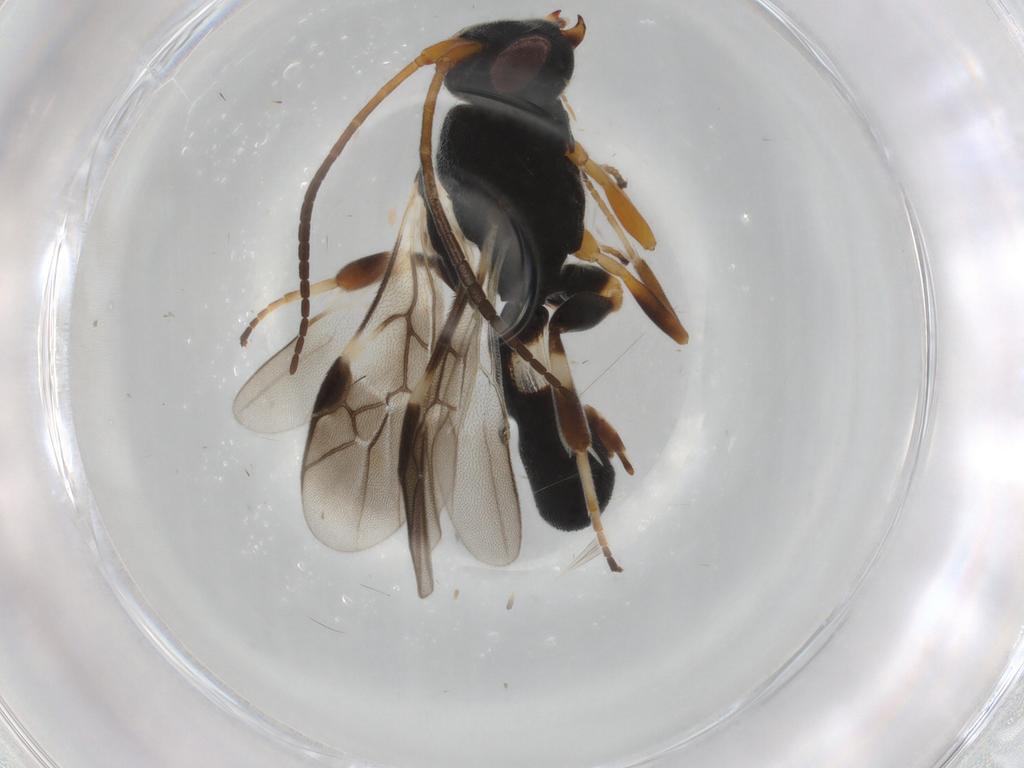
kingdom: Animalia
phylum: Arthropoda
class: Insecta
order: Hymenoptera
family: Braconidae
